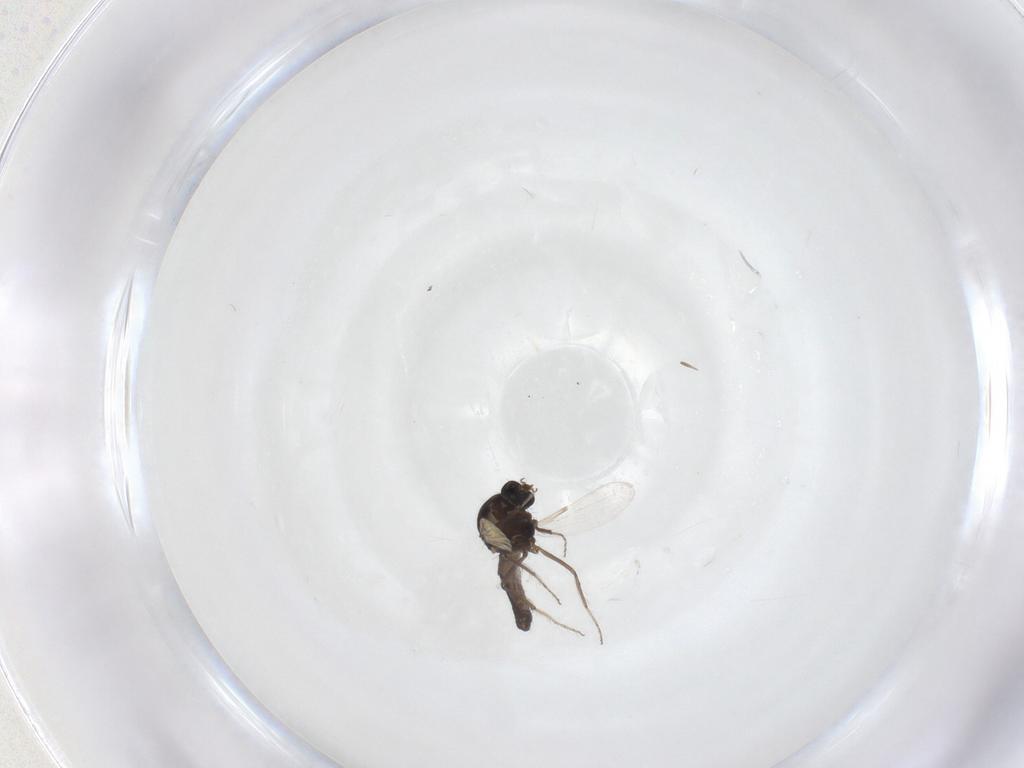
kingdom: Animalia
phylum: Arthropoda
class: Insecta
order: Diptera
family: Ceratopogonidae
